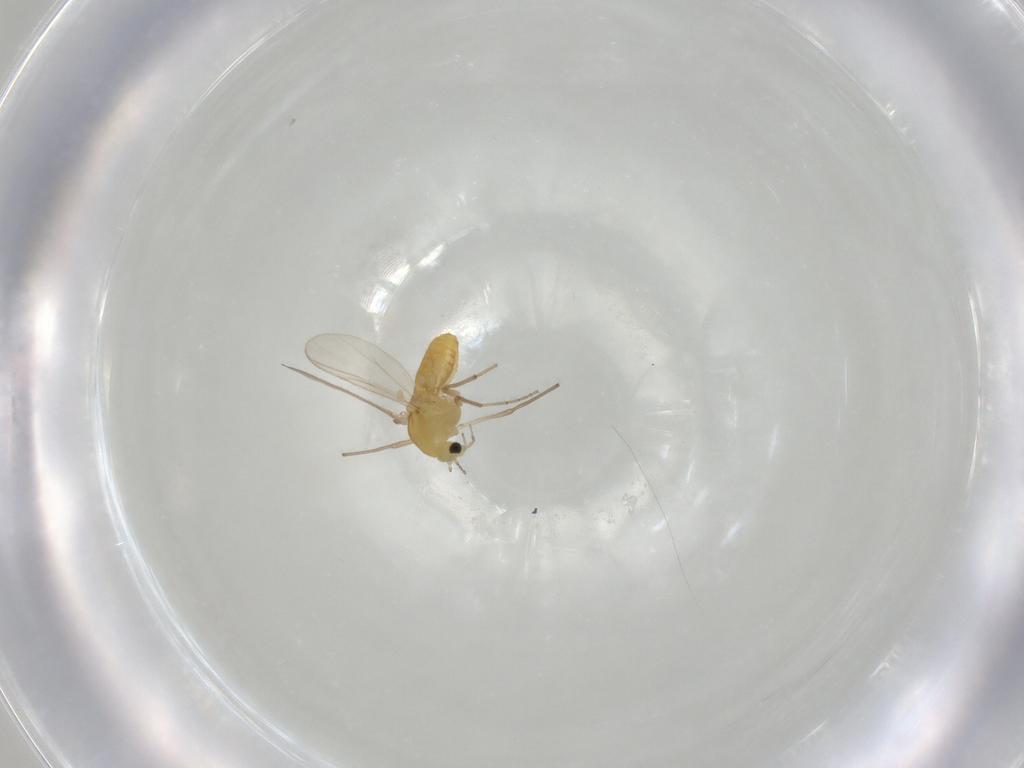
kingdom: Animalia
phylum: Arthropoda
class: Insecta
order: Diptera
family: Chironomidae
